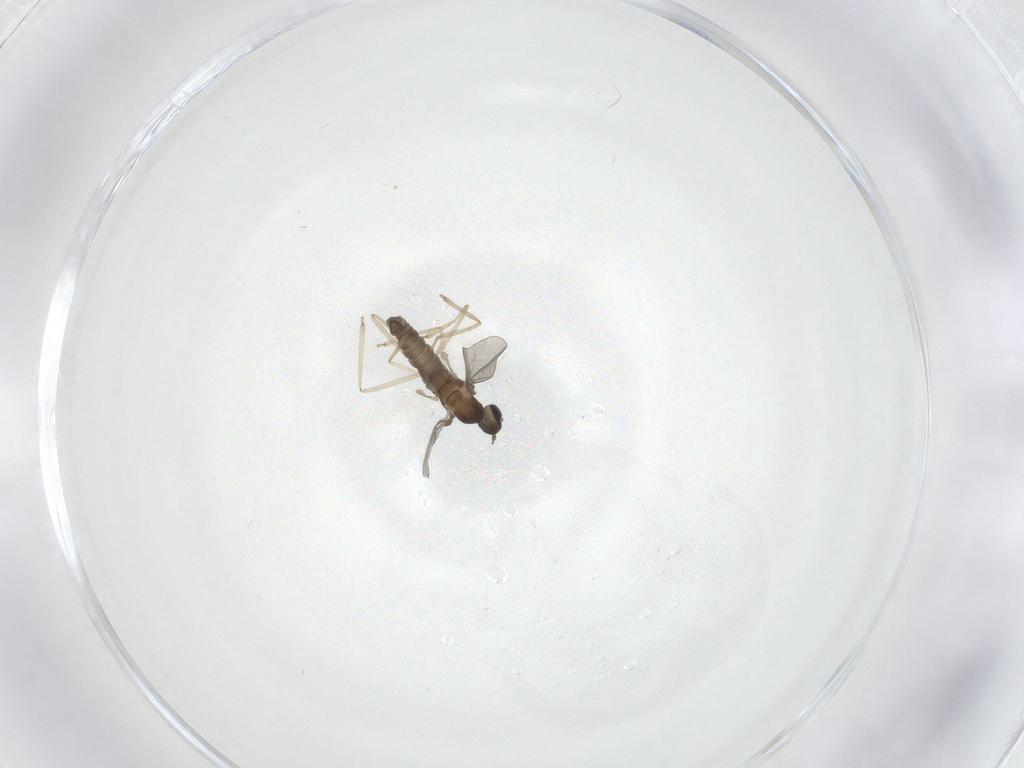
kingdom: Animalia
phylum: Arthropoda
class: Insecta
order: Diptera
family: Cecidomyiidae
